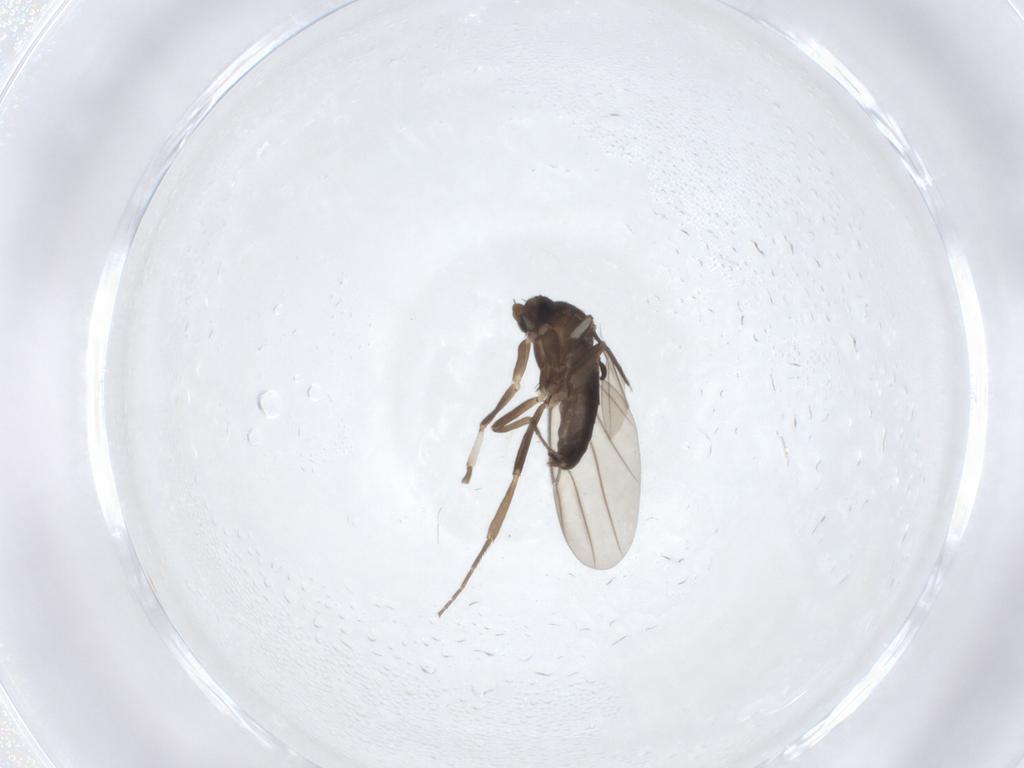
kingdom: Animalia
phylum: Arthropoda
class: Insecta
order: Diptera
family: Phoridae
